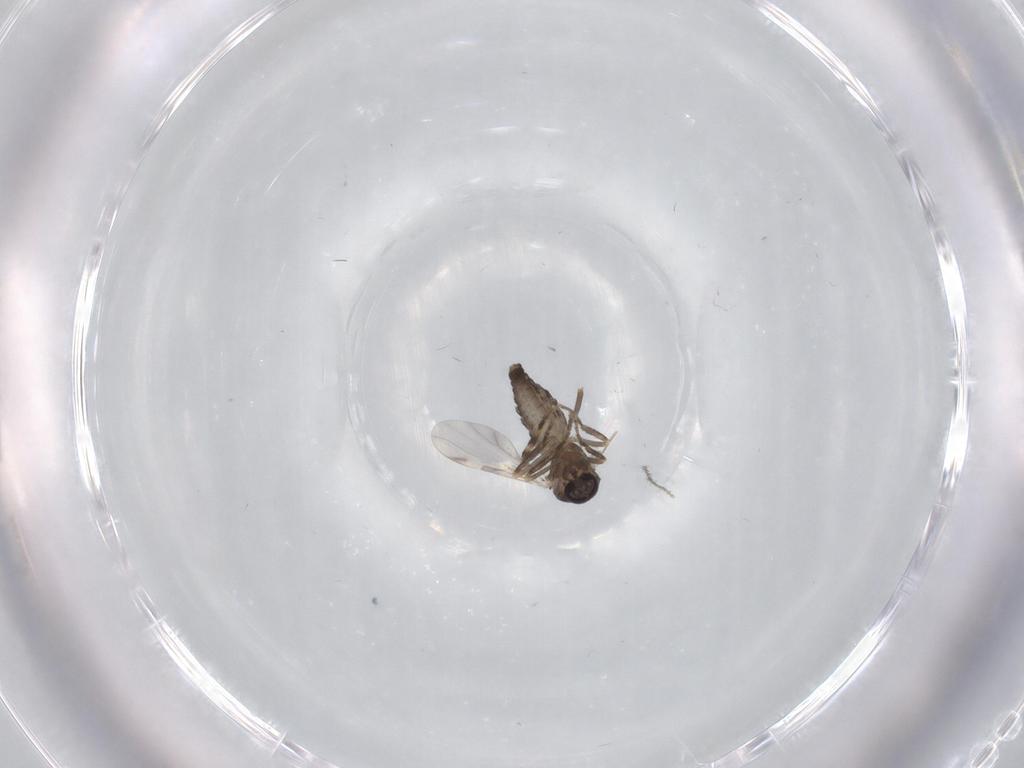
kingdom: Animalia
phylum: Arthropoda
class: Insecta
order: Diptera
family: Ceratopogonidae
